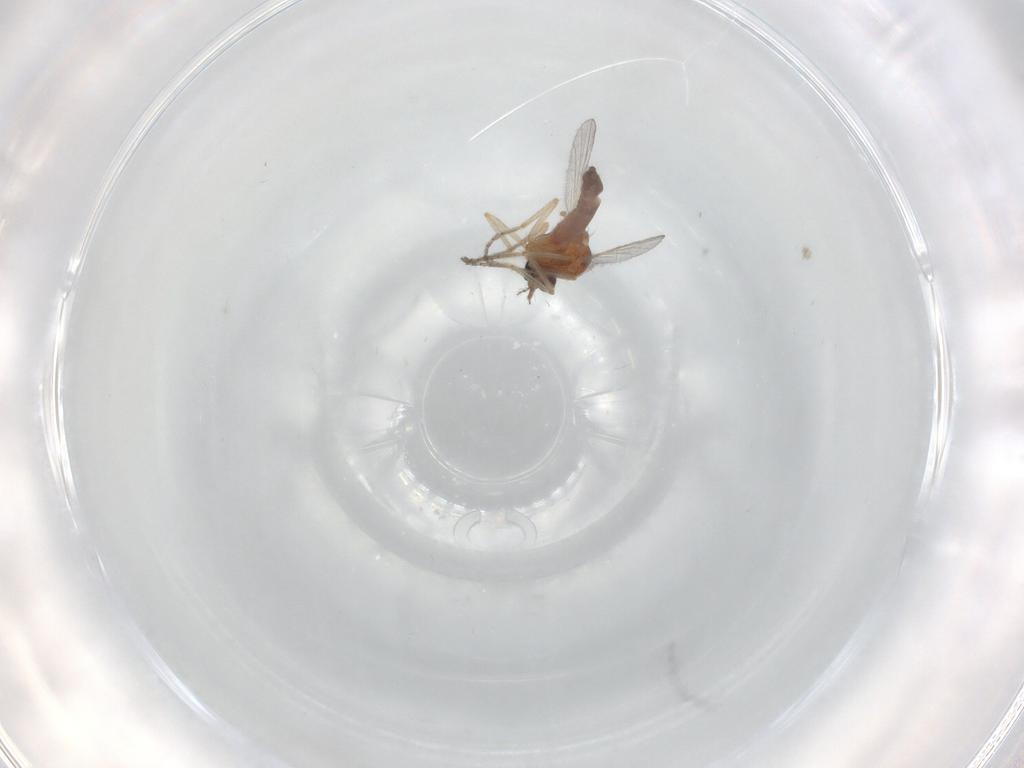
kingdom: Animalia
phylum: Arthropoda
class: Insecta
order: Diptera
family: Ceratopogonidae
